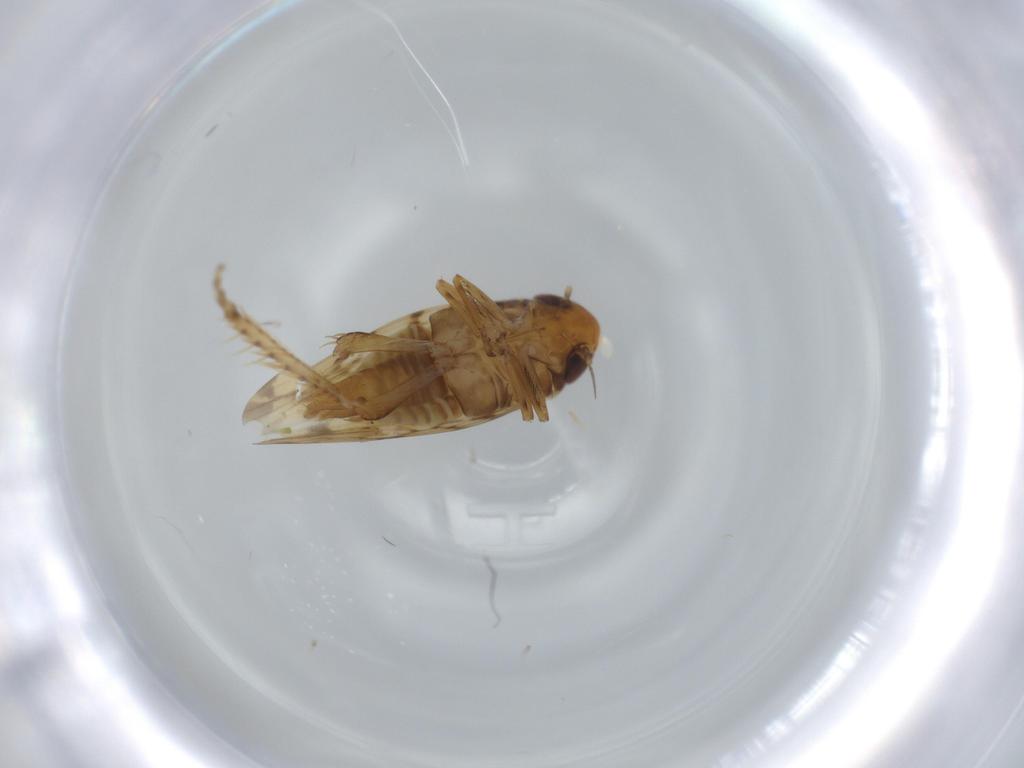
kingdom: Animalia
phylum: Arthropoda
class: Insecta
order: Hemiptera
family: Cicadellidae
